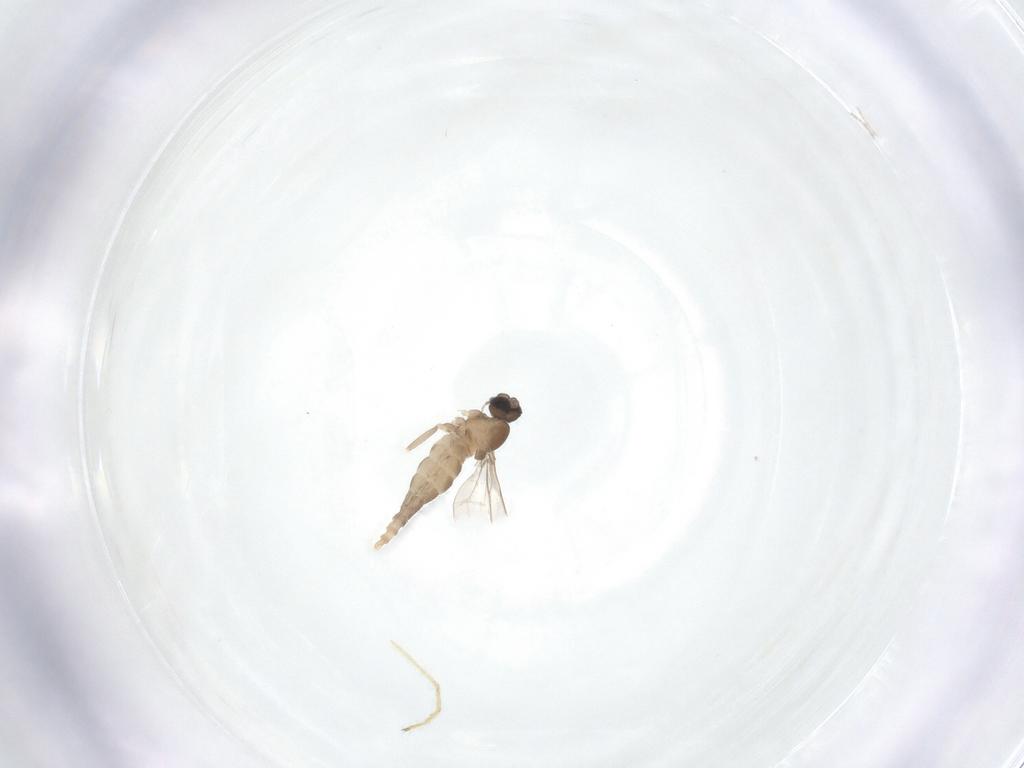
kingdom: Animalia
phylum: Arthropoda
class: Insecta
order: Diptera
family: Cecidomyiidae
